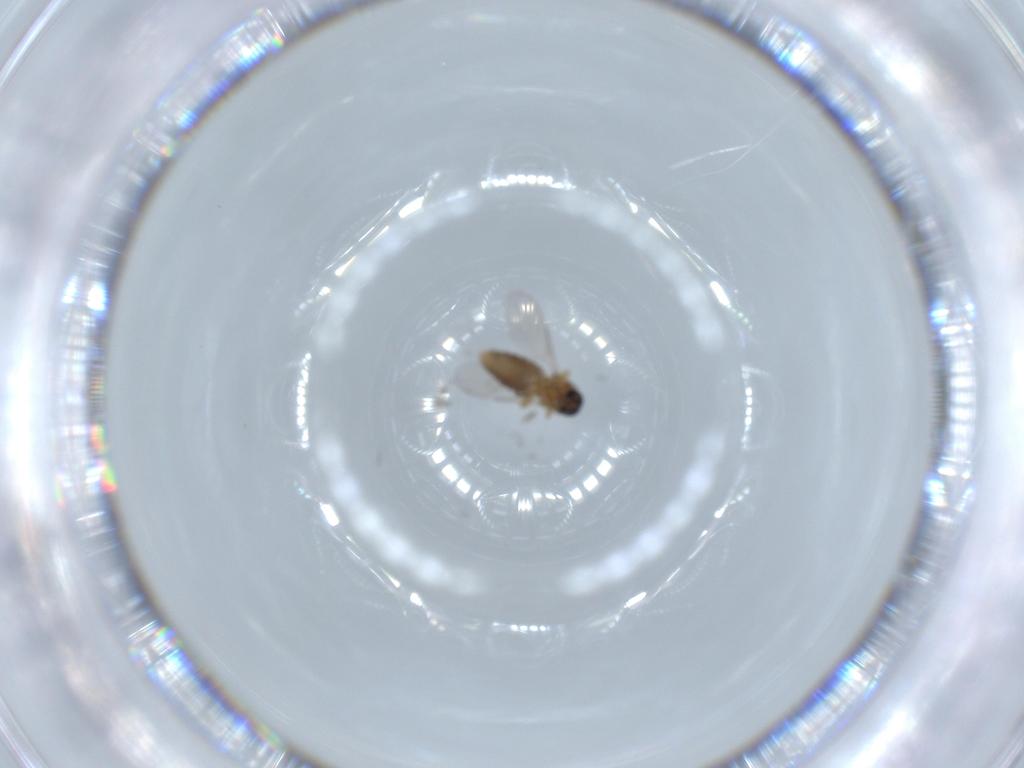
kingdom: Animalia
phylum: Arthropoda
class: Insecta
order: Diptera
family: Ceratopogonidae
